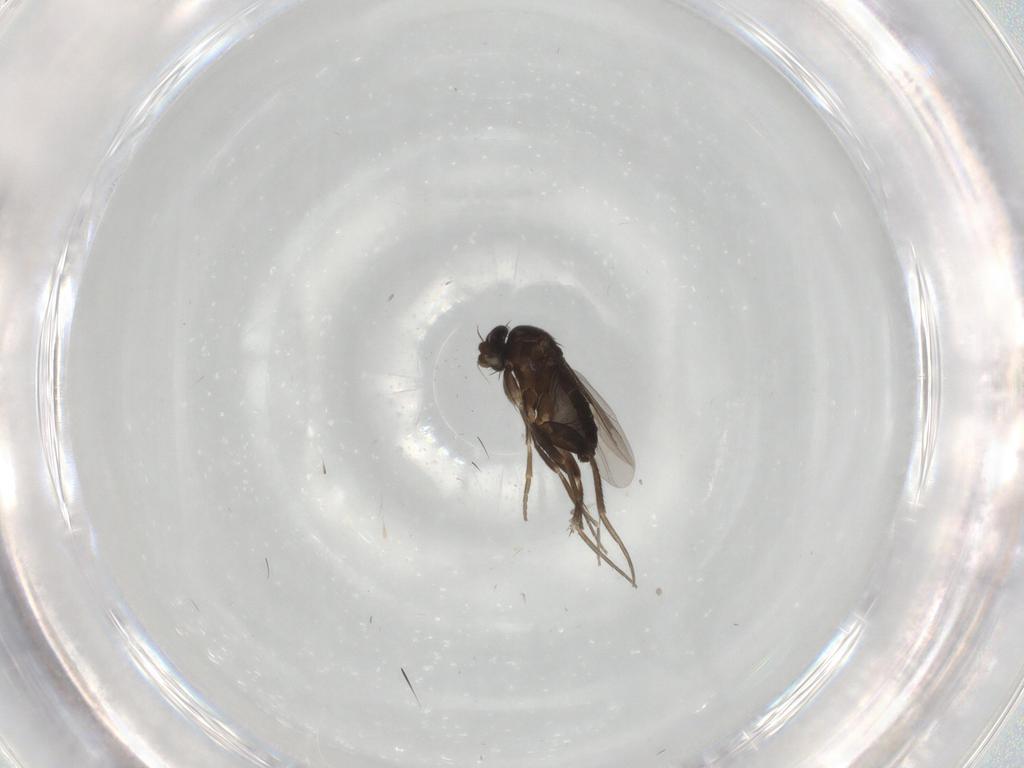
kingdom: Animalia
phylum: Arthropoda
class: Insecta
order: Diptera
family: Phoridae
